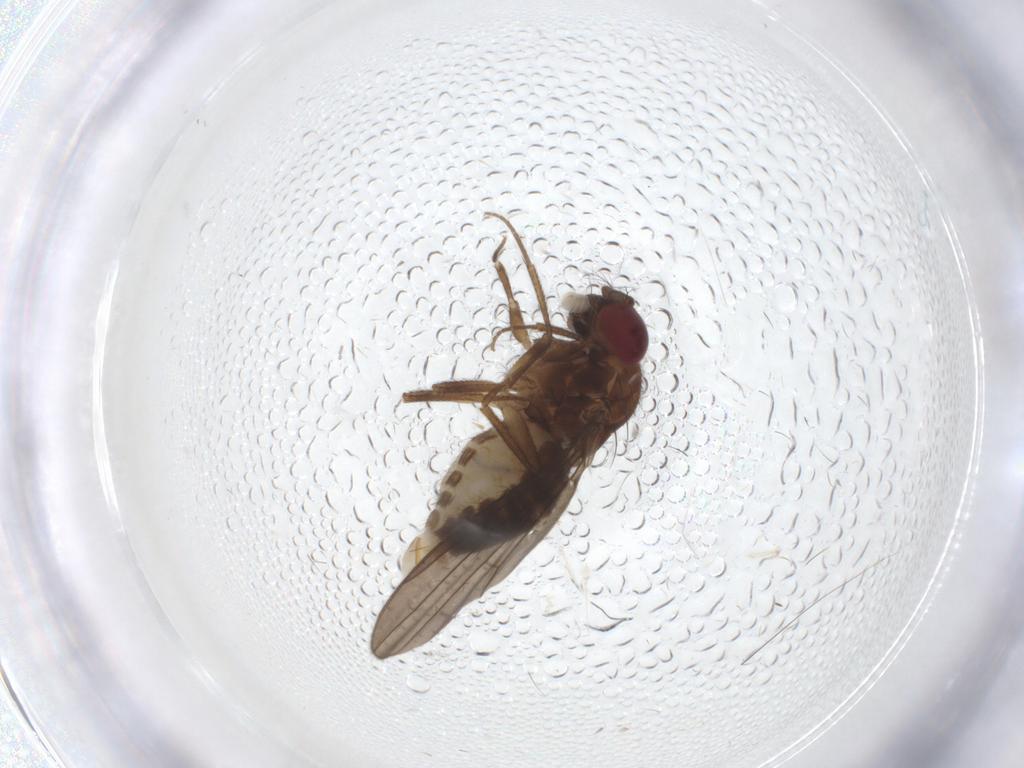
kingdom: Animalia
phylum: Arthropoda
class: Insecta
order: Diptera
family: Drosophilidae
